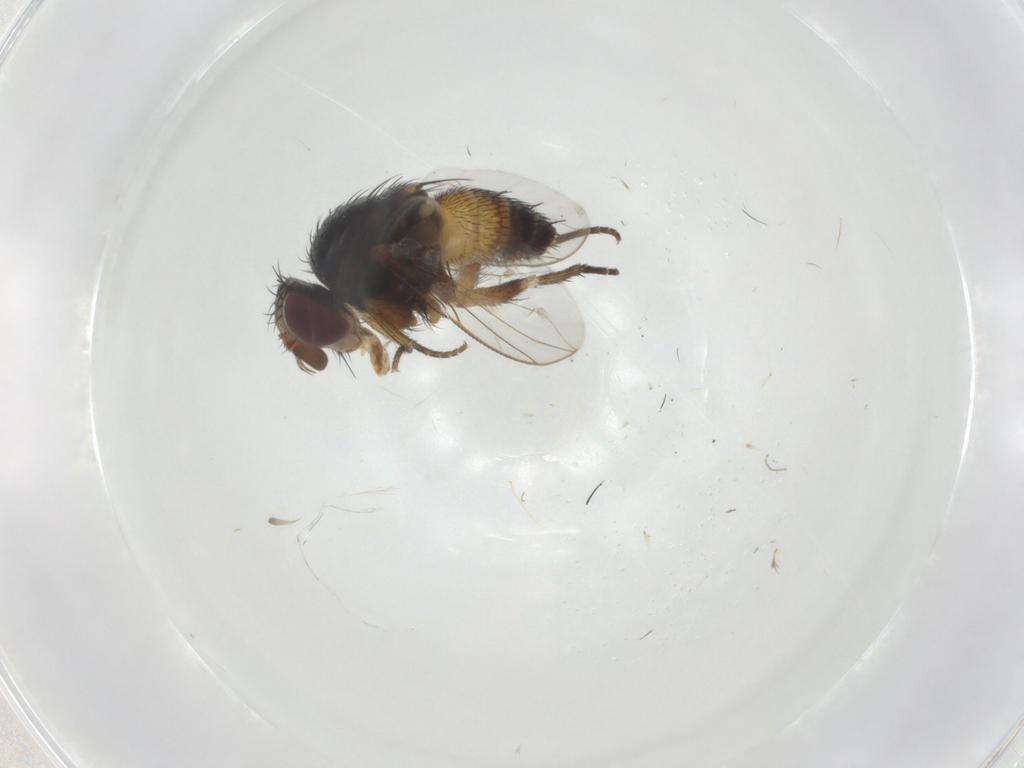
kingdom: Animalia
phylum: Arthropoda
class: Insecta
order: Diptera
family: Tachinidae
